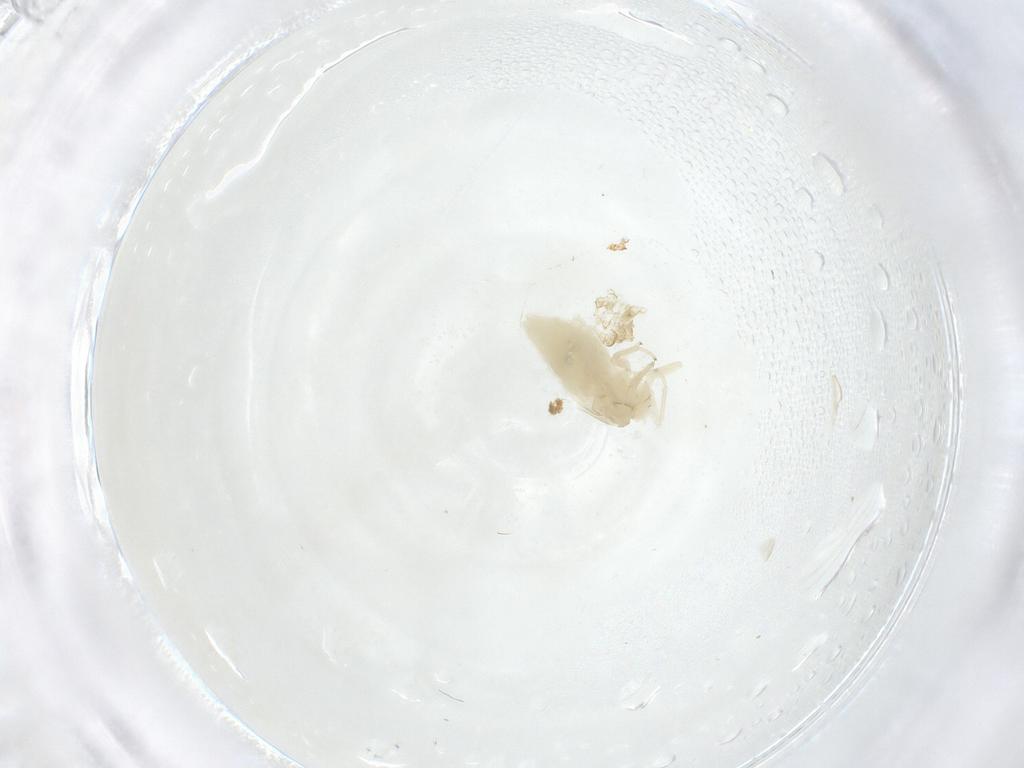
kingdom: Animalia
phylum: Arthropoda
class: Insecta
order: Psocodea
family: Caeciliusidae
